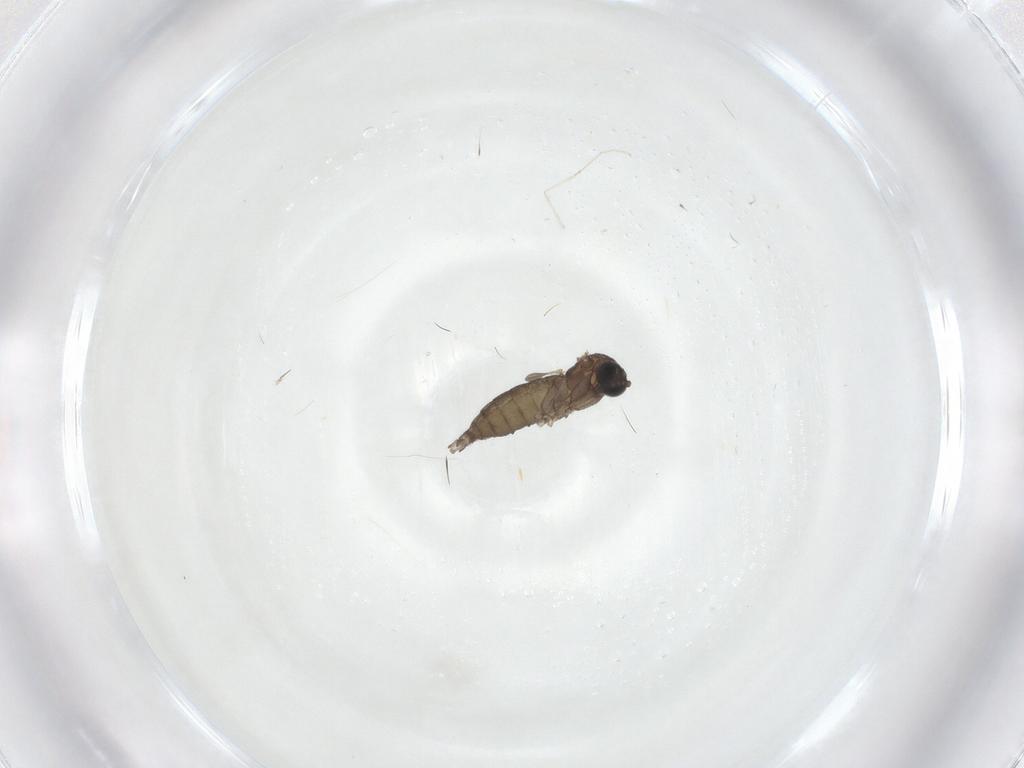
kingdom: Animalia
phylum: Arthropoda
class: Insecta
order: Diptera
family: Sciaridae
